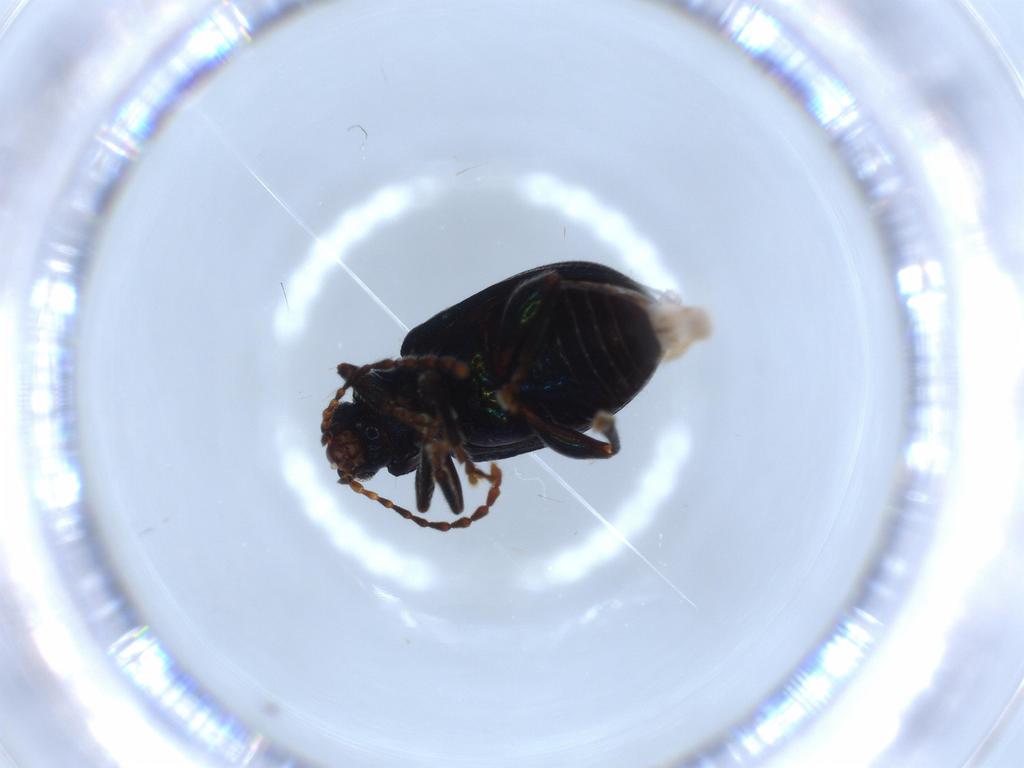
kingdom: Animalia
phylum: Arthropoda
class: Insecta
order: Coleoptera
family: Chrysomelidae
